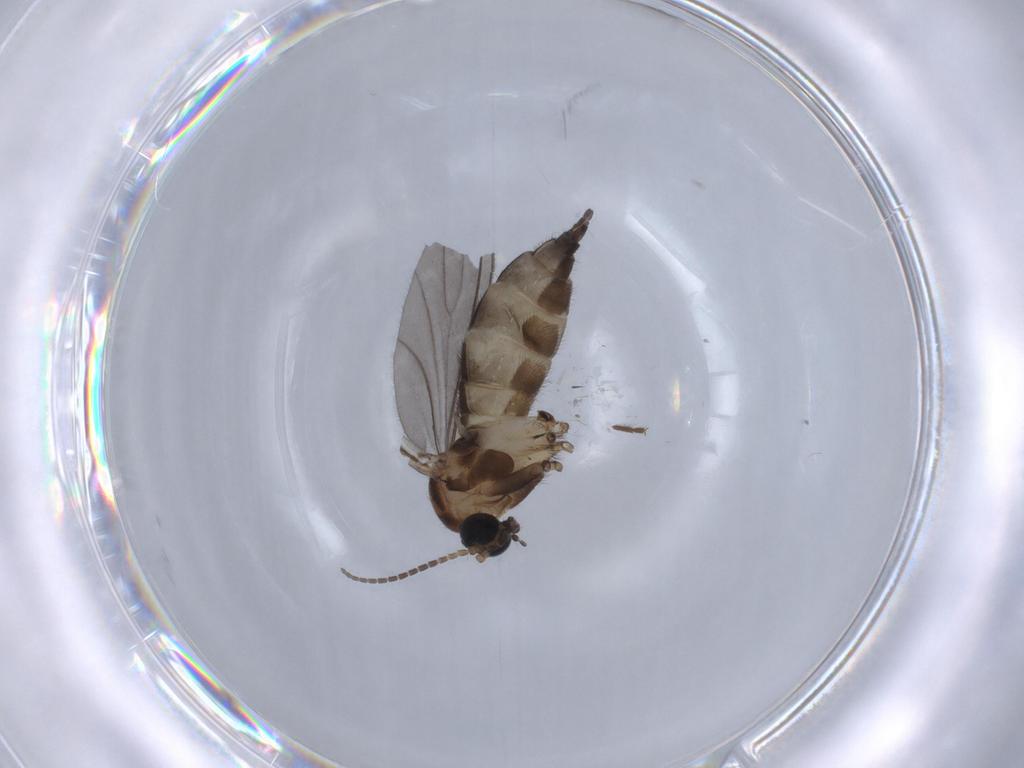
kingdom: Animalia
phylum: Arthropoda
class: Insecta
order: Diptera
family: Sciaridae
